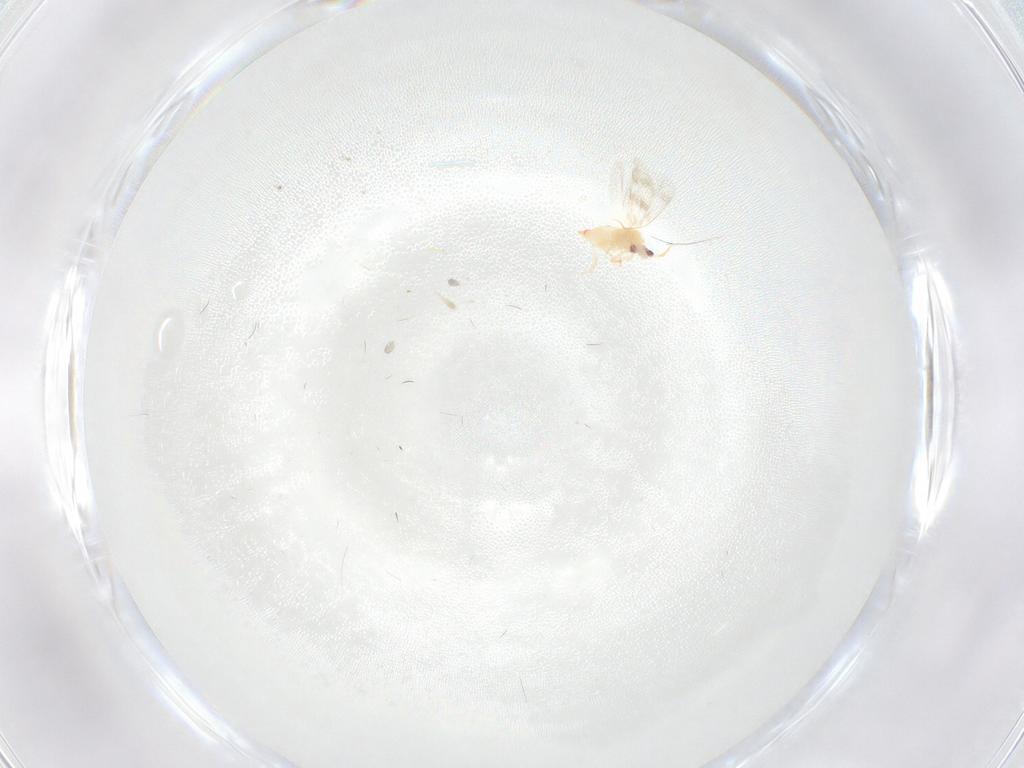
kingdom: Animalia
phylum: Arthropoda
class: Insecta
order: Hemiptera
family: Aleyrodidae
